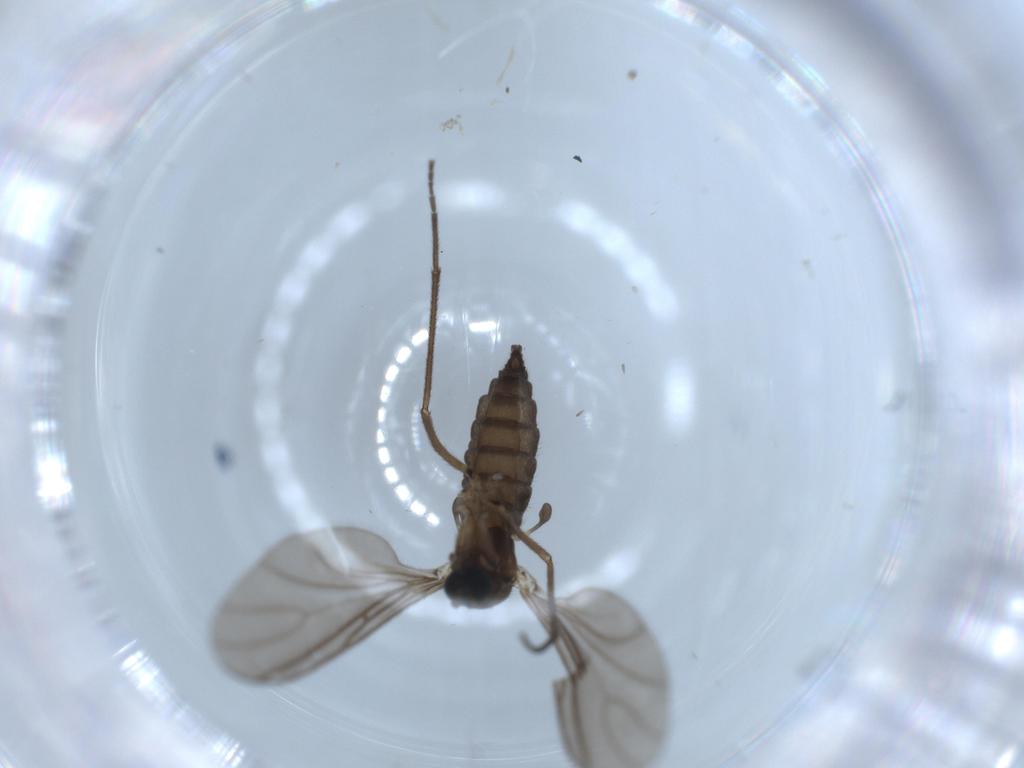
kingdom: Animalia
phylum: Arthropoda
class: Insecta
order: Diptera
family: Sciaridae
